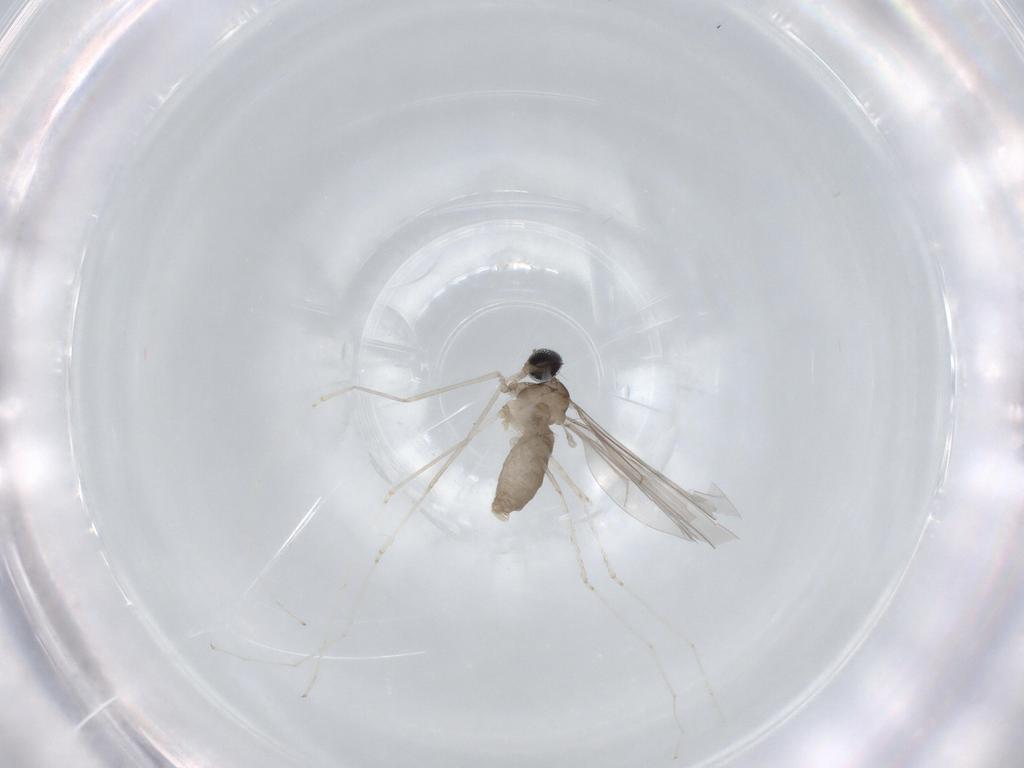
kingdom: Animalia
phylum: Arthropoda
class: Insecta
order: Diptera
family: Cecidomyiidae
